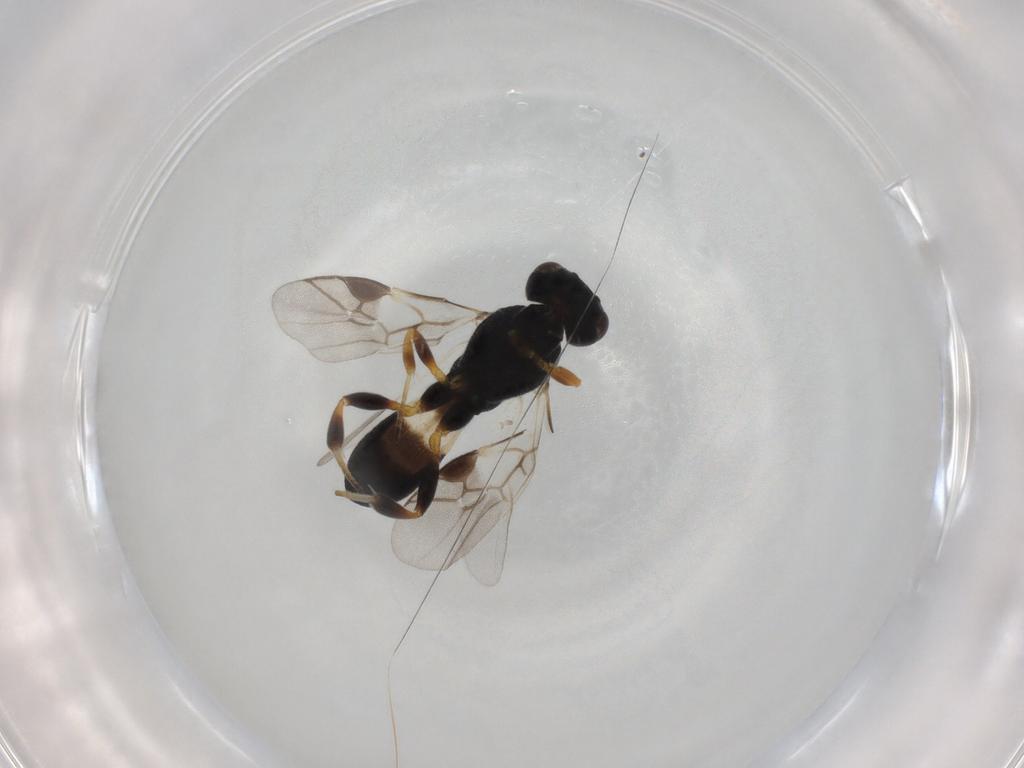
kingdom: Animalia
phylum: Arthropoda
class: Insecta
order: Hymenoptera
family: Braconidae
